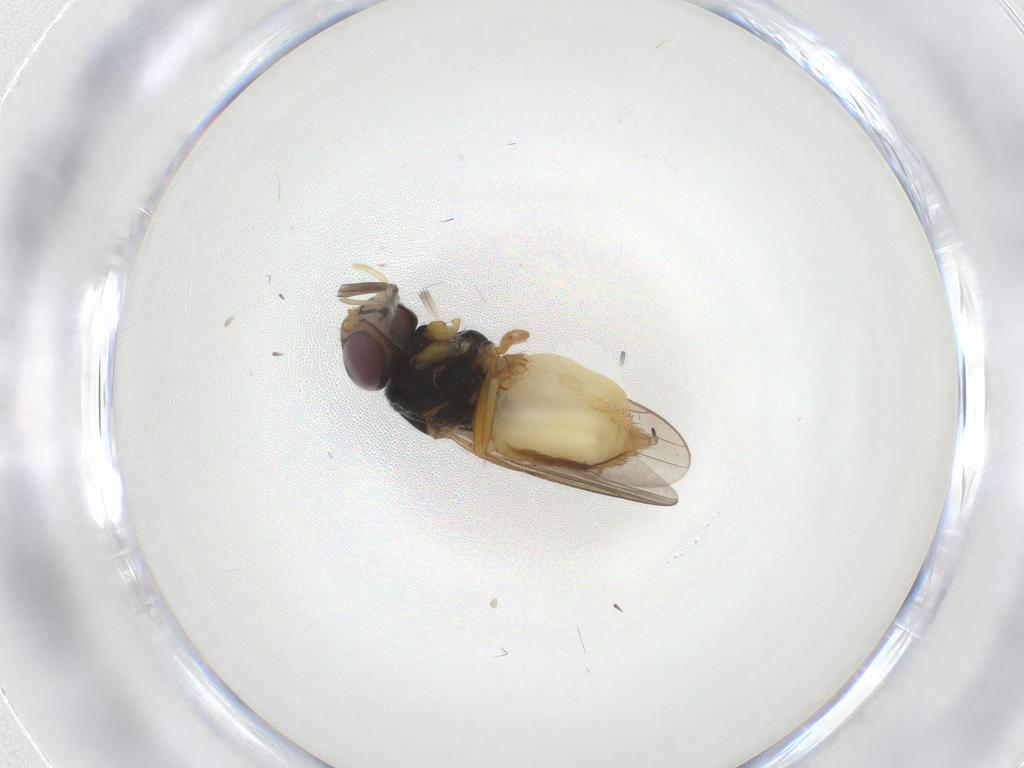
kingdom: Animalia
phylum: Arthropoda
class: Insecta
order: Diptera
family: Chloropidae
